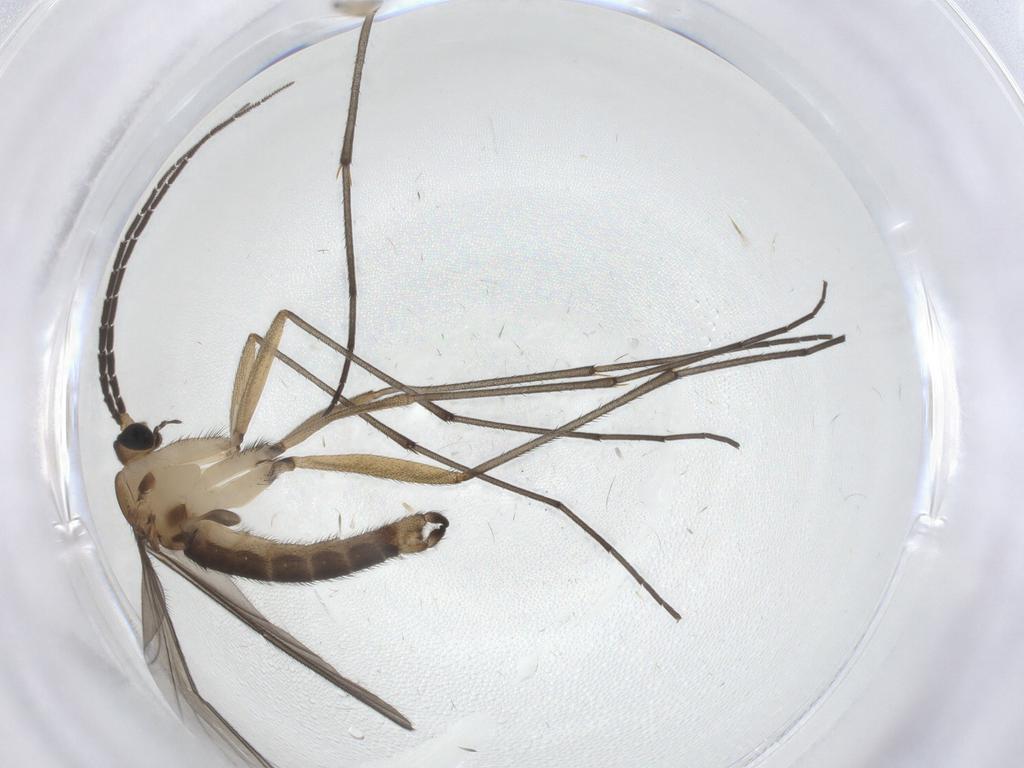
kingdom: Animalia
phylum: Arthropoda
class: Insecta
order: Diptera
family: Sciaridae
